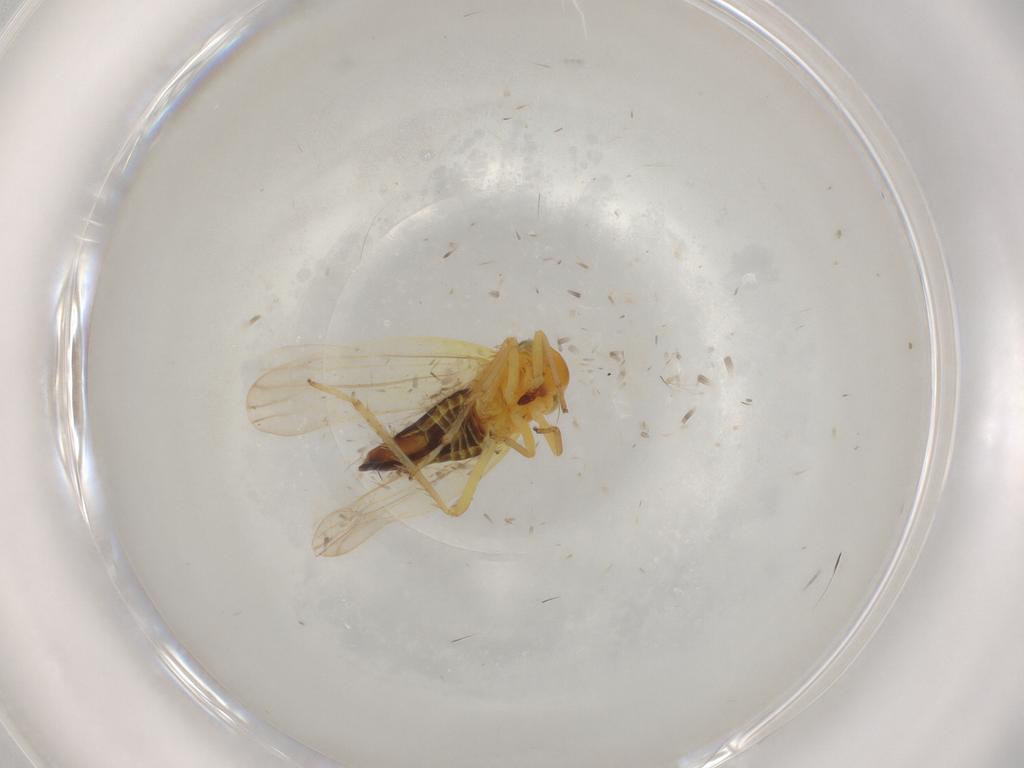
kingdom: Animalia
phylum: Arthropoda
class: Insecta
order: Hemiptera
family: Cicadellidae
